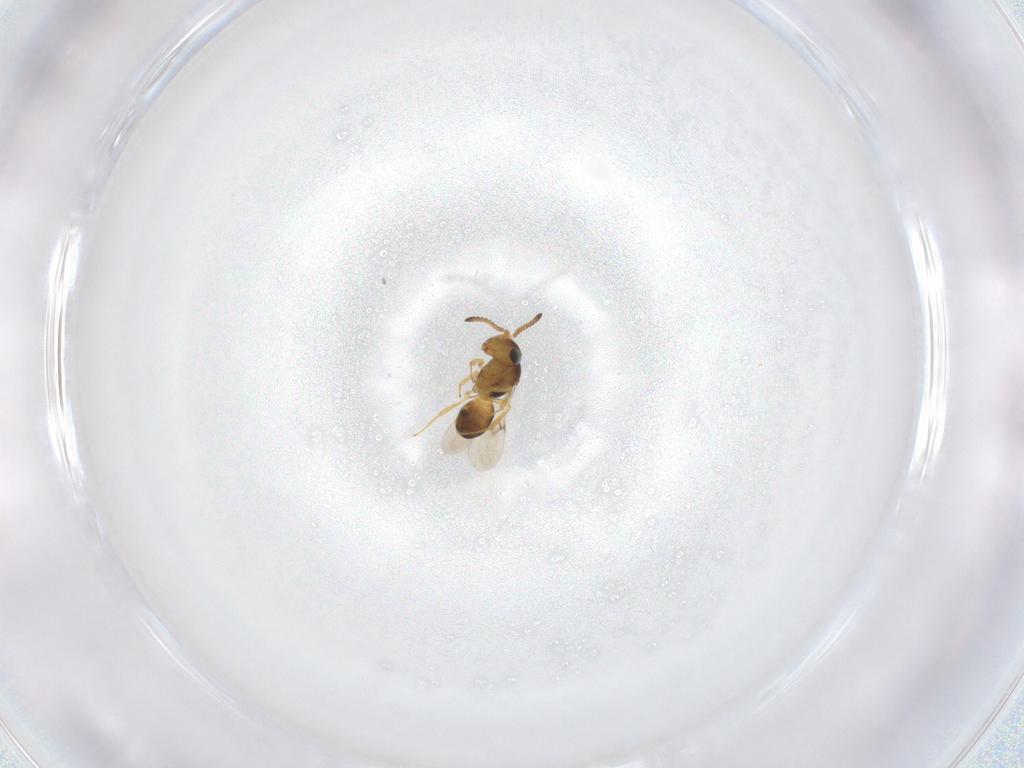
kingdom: Animalia
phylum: Arthropoda
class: Insecta
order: Hymenoptera
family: Scelionidae
